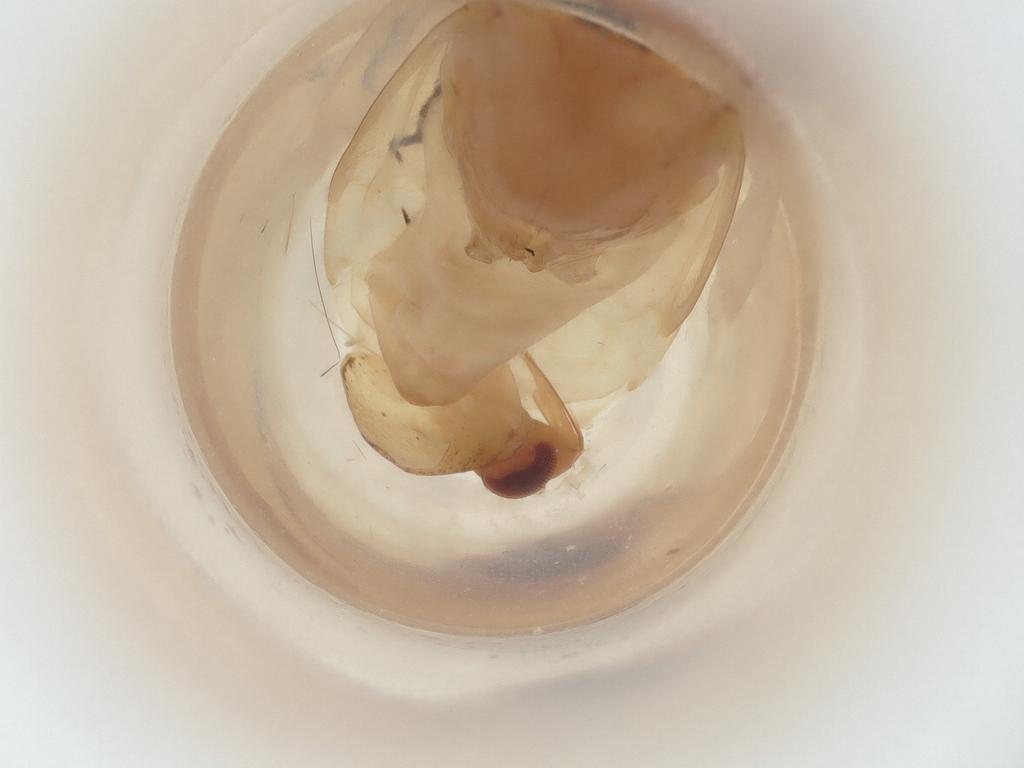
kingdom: Animalia
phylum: Arthropoda
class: Insecta
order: Hemiptera
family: Miridae
